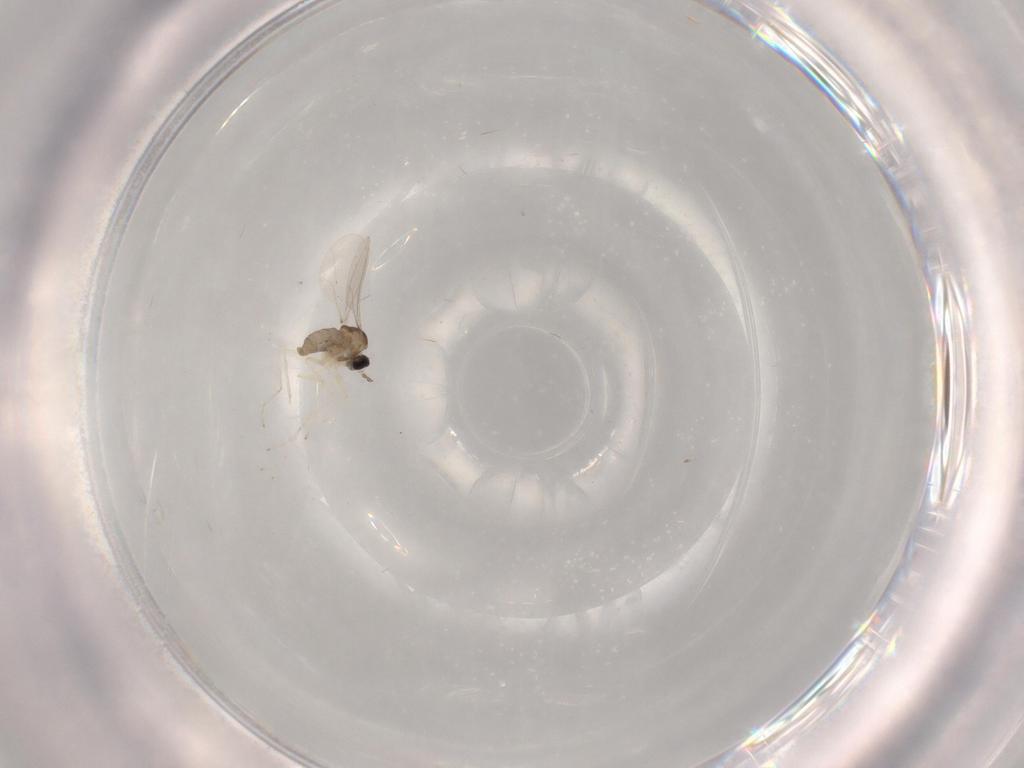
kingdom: Animalia
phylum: Arthropoda
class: Insecta
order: Diptera
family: Cecidomyiidae
